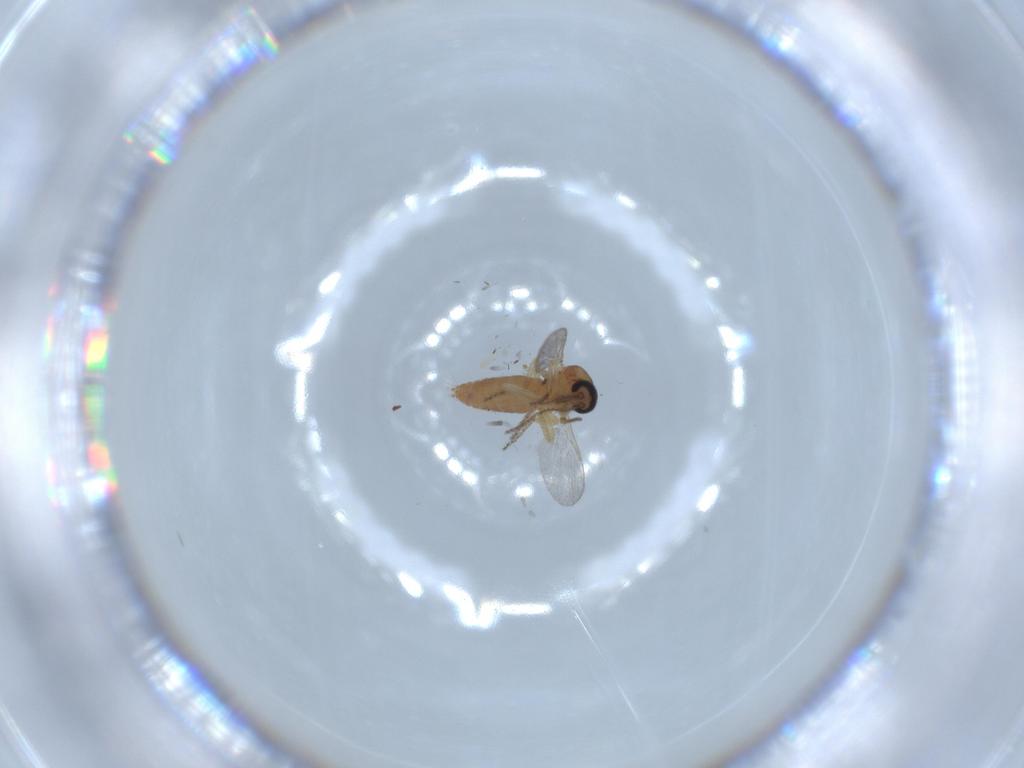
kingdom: Animalia
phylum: Arthropoda
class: Insecta
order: Diptera
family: Ceratopogonidae
